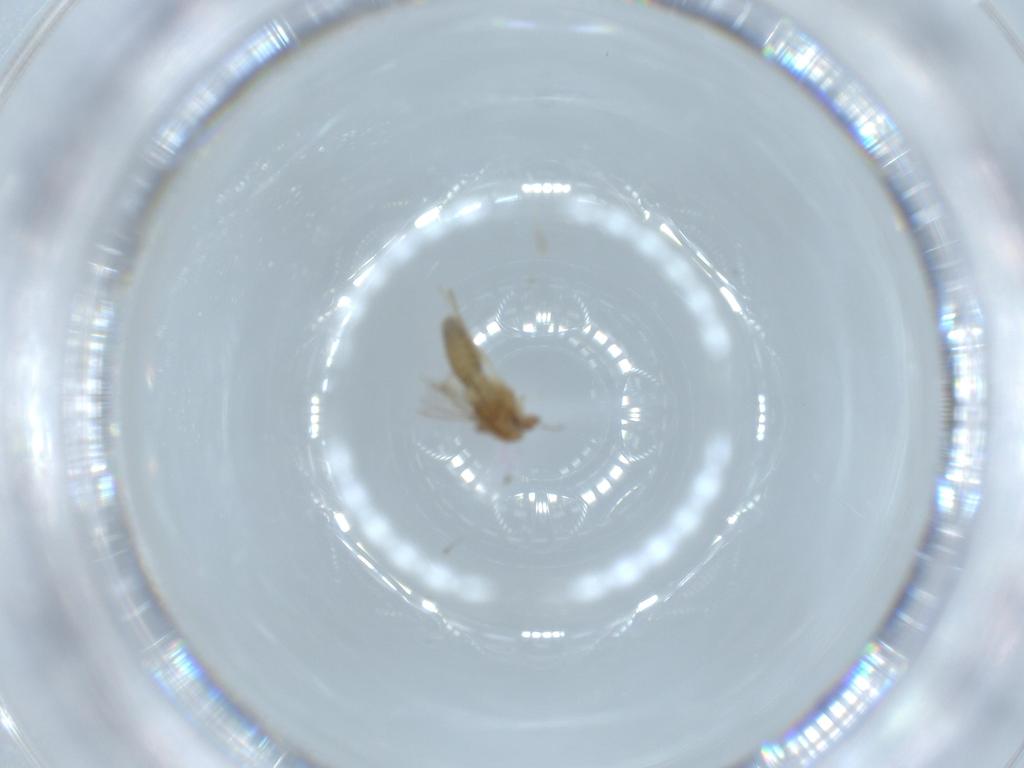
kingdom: Animalia
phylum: Arthropoda
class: Insecta
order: Diptera
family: Chironomidae
